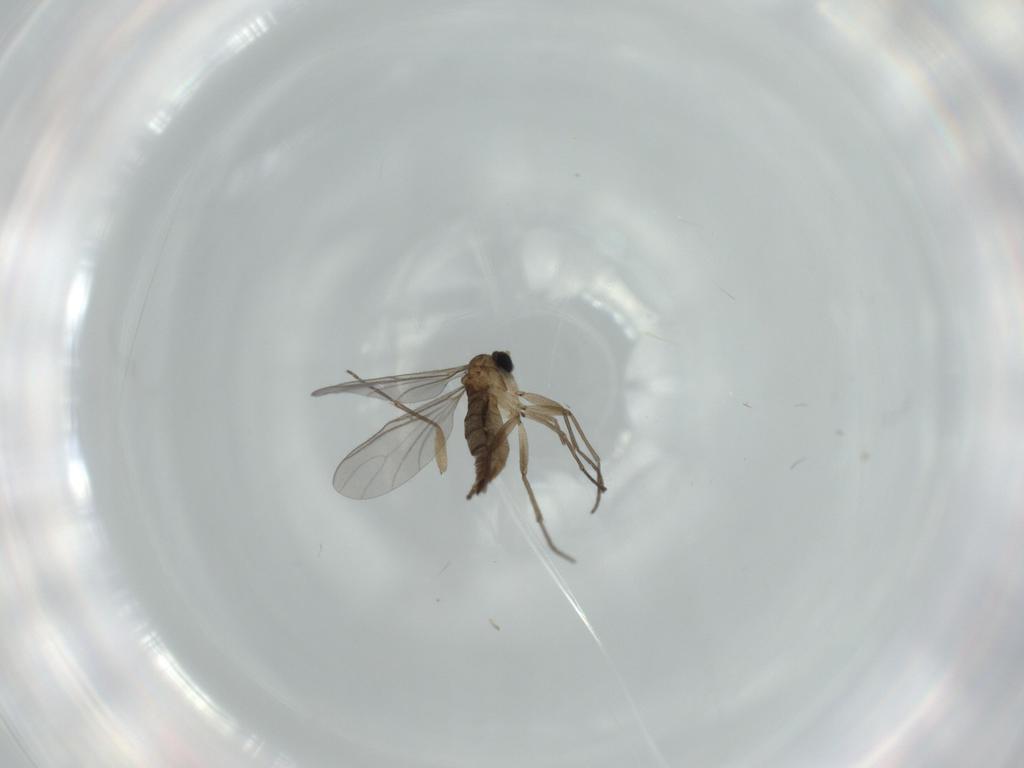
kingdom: Animalia
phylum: Arthropoda
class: Insecta
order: Diptera
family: Sciaridae
